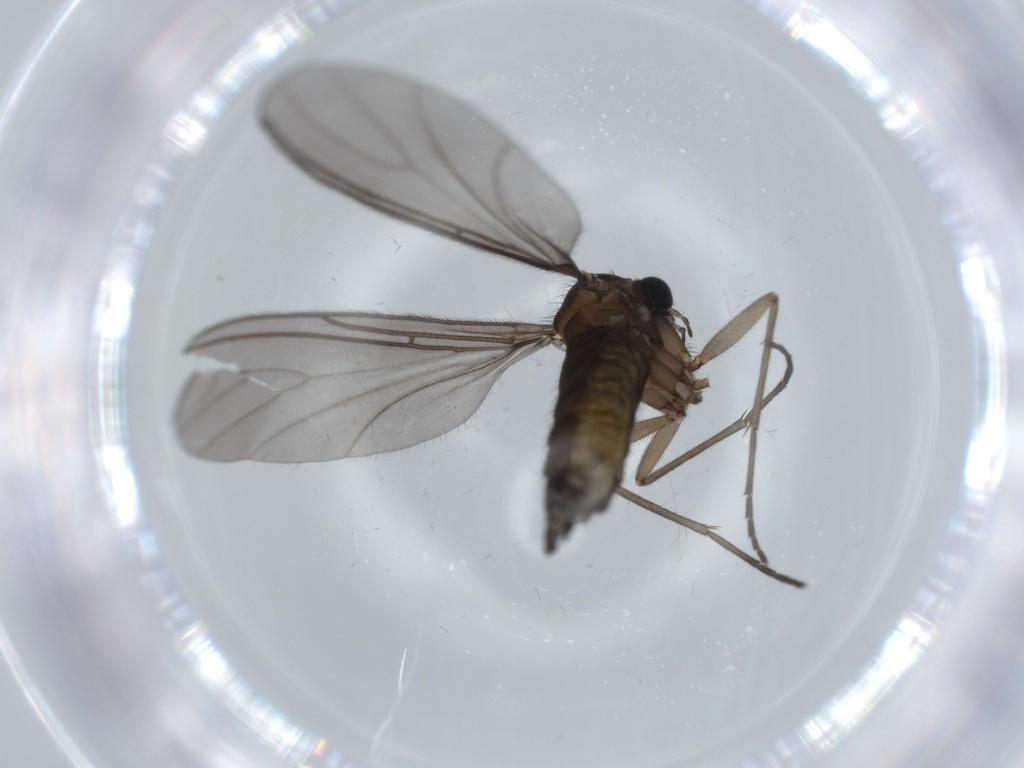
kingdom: Animalia
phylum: Arthropoda
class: Insecta
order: Diptera
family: Sciaridae
